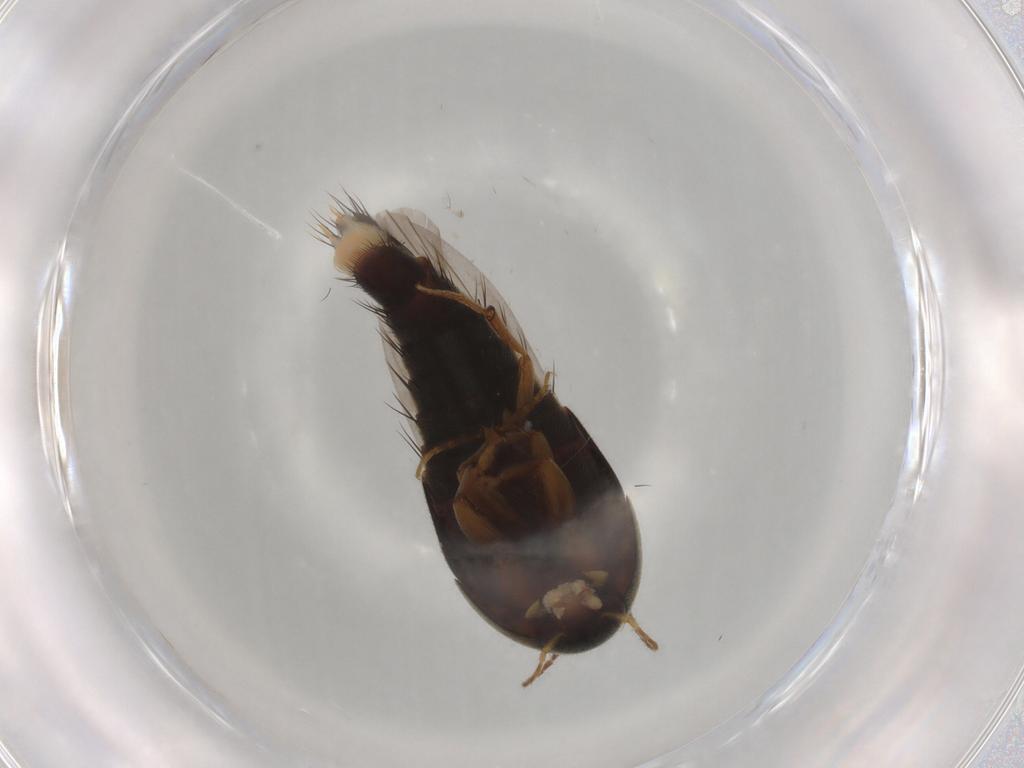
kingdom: Animalia
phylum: Arthropoda
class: Insecta
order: Coleoptera
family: Staphylinidae
